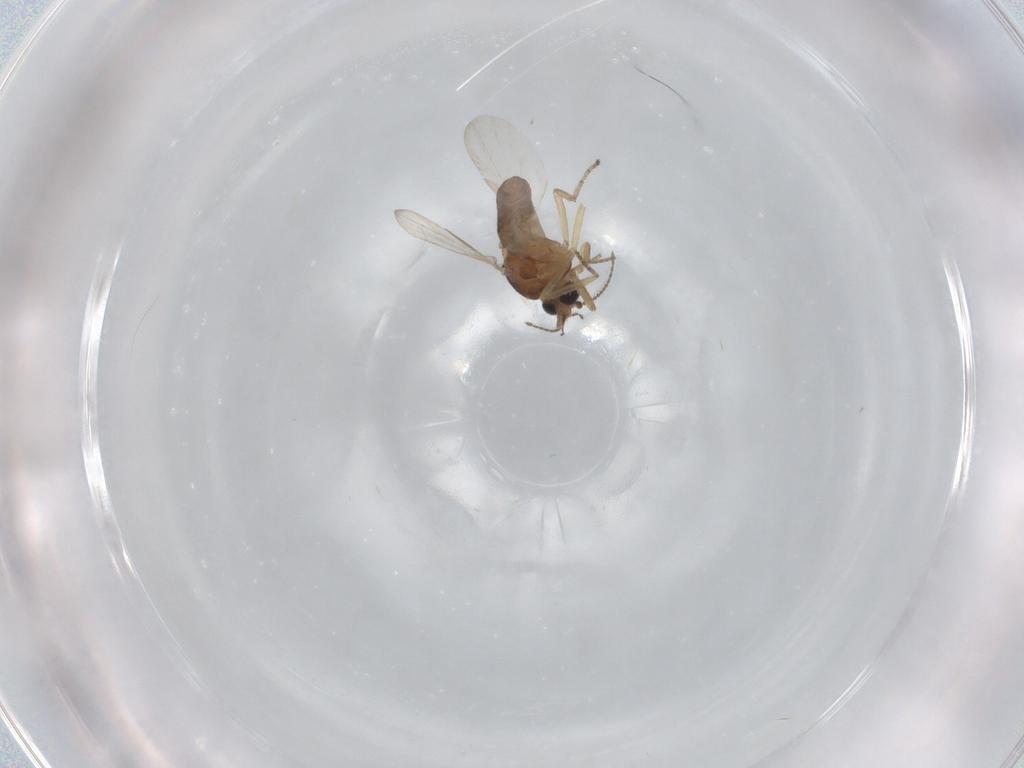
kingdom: Animalia
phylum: Arthropoda
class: Insecta
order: Diptera
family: Ceratopogonidae
